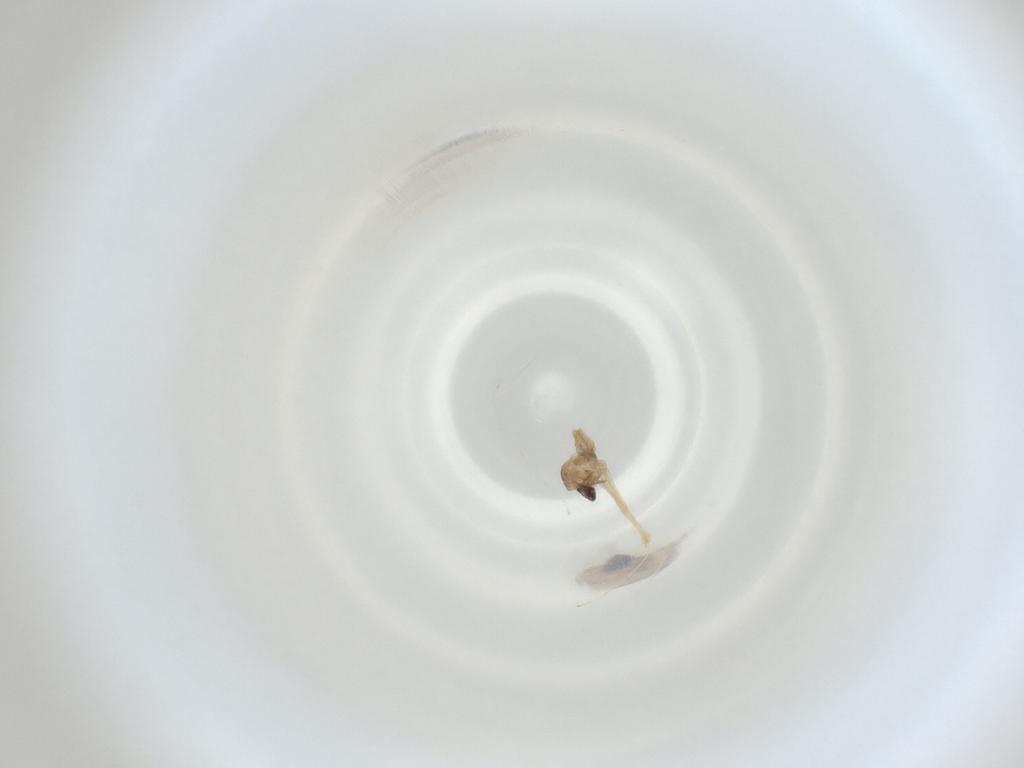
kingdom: Animalia
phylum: Arthropoda
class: Insecta
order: Diptera
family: Cecidomyiidae
